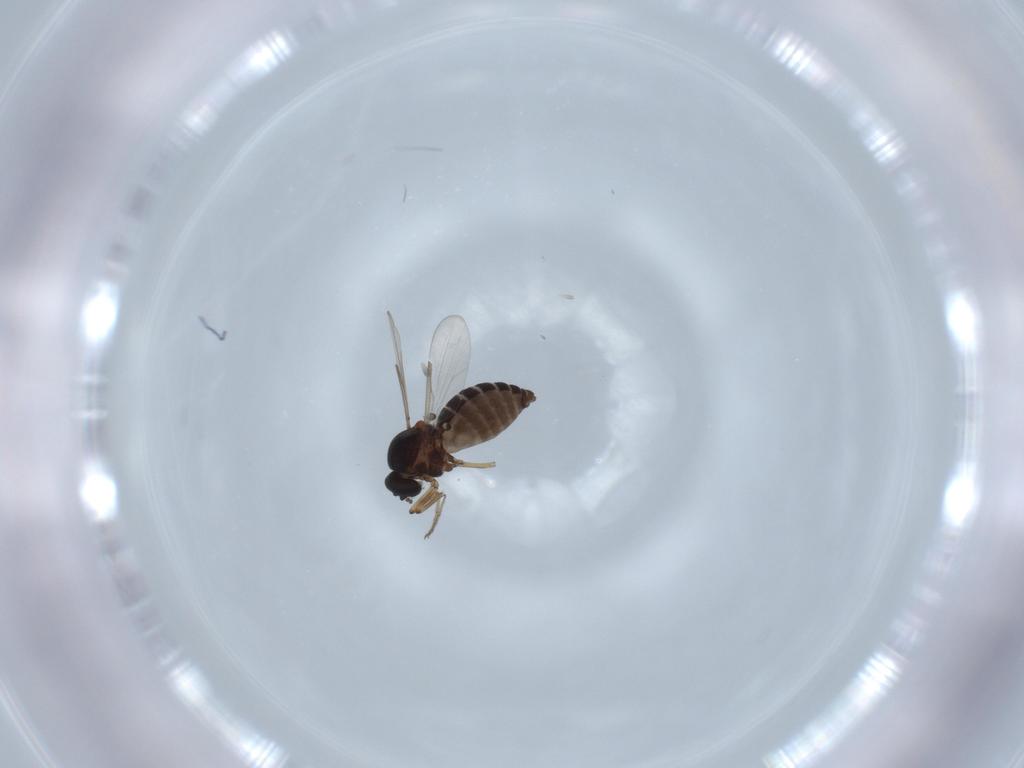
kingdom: Animalia
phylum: Arthropoda
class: Insecta
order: Diptera
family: Ceratopogonidae
